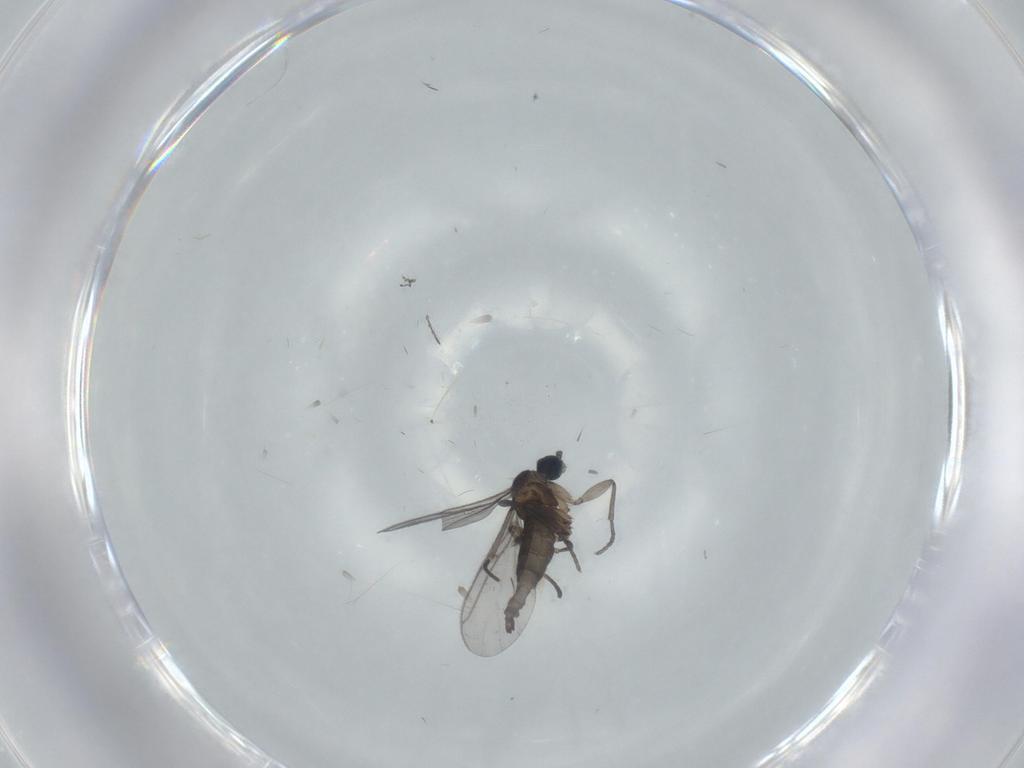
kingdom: Animalia
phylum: Arthropoda
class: Insecta
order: Diptera
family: Chironomidae
